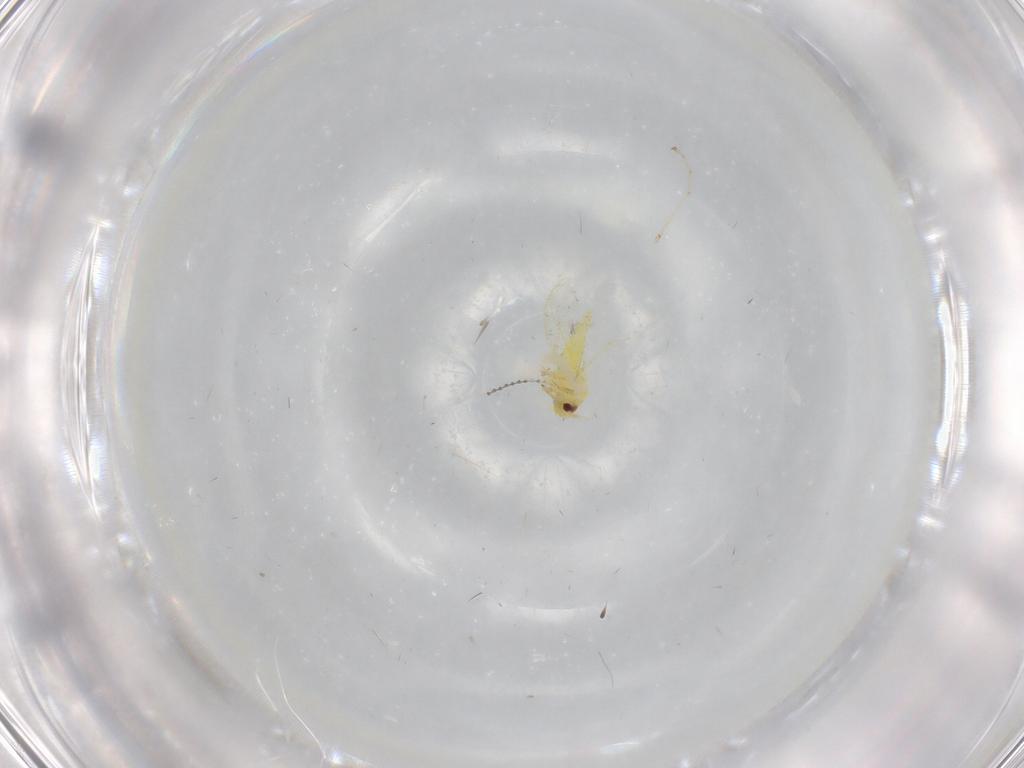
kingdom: Animalia
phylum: Arthropoda
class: Insecta
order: Hemiptera
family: Aleyrodidae
